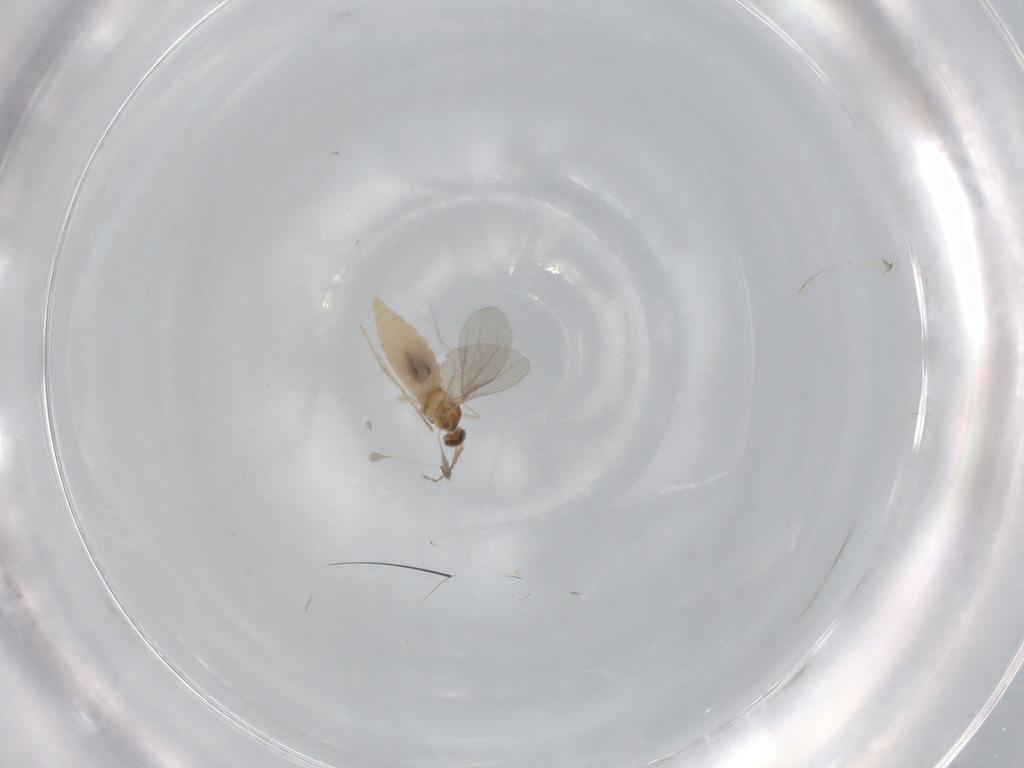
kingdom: Animalia
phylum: Arthropoda
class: Insecta
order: Diptera
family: Cecidomyiidae
